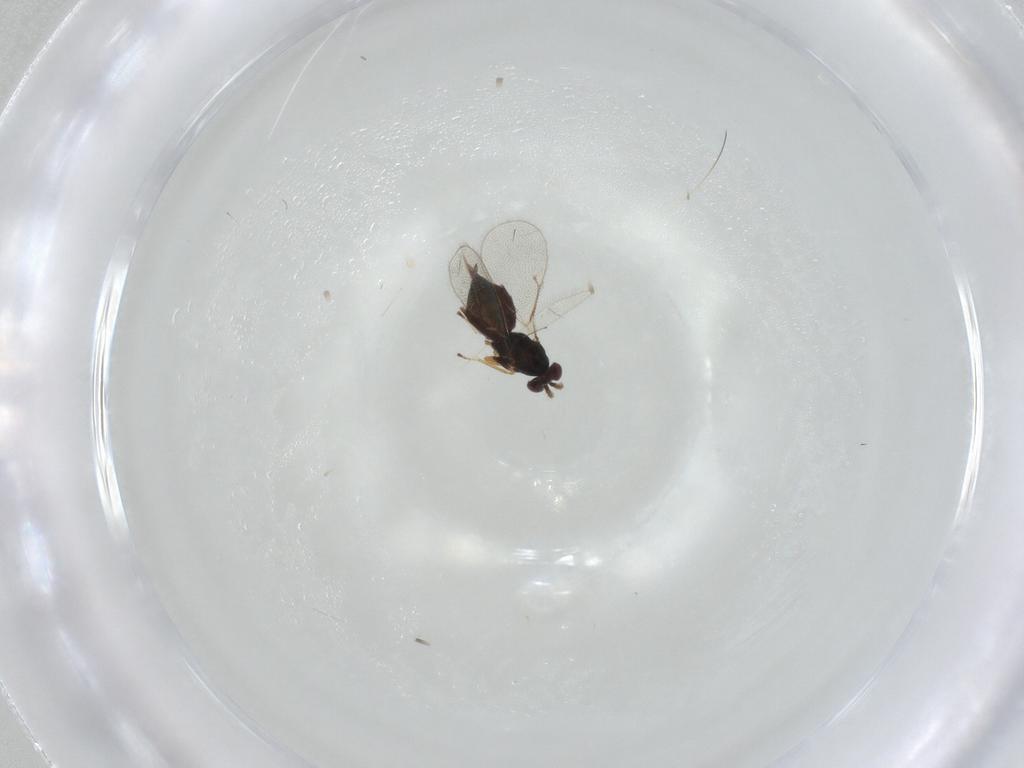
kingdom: Animalia
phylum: Arthropoda
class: Insecta
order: Hymenoptera
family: Eulophidae
